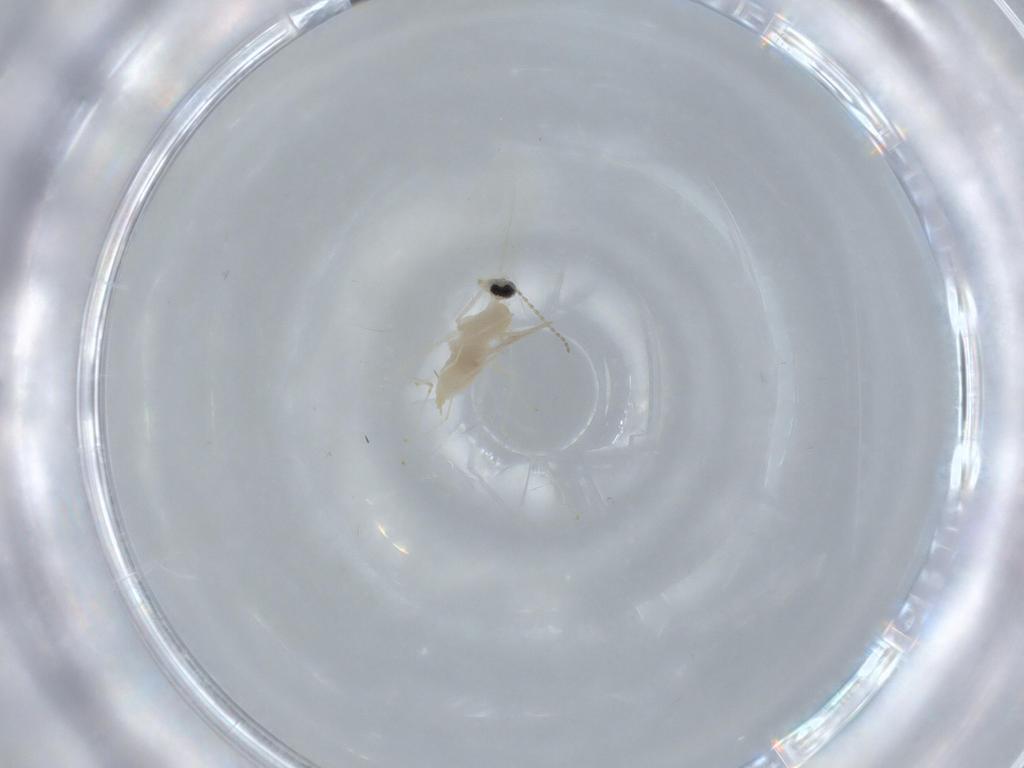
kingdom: Animalia
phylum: Arthropoda
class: Insecta
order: Diptera
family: Cecidomyiidae
